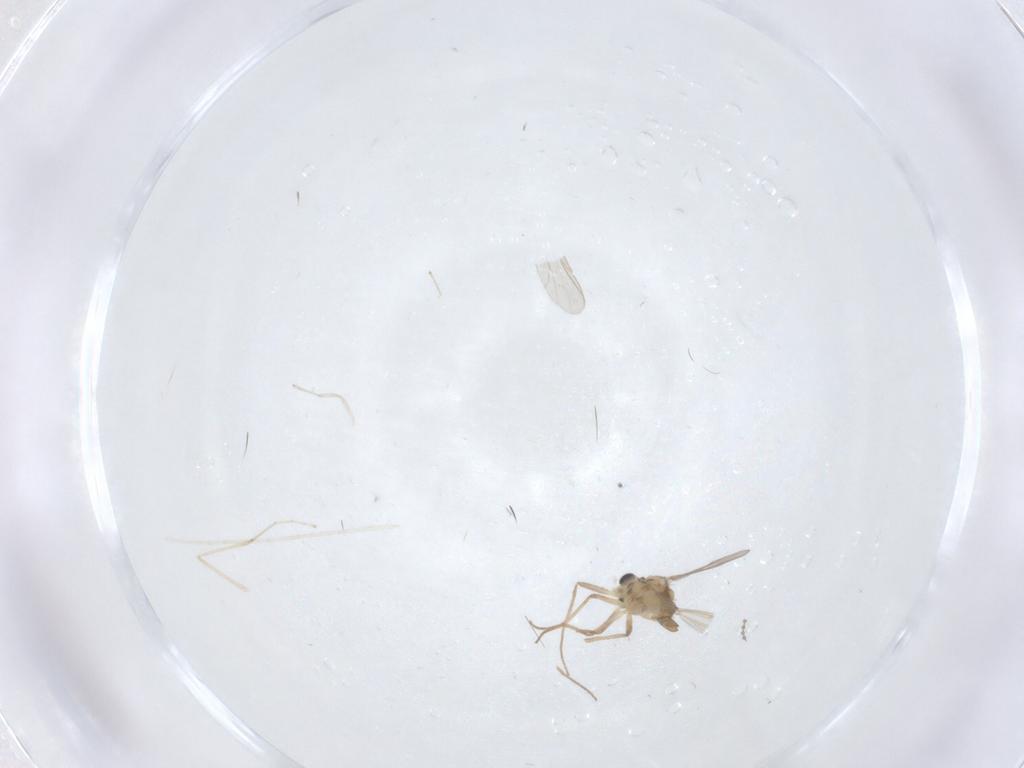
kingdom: Animalia
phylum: Arthropoda
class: Insecta
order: Diptera
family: Chironomidae
